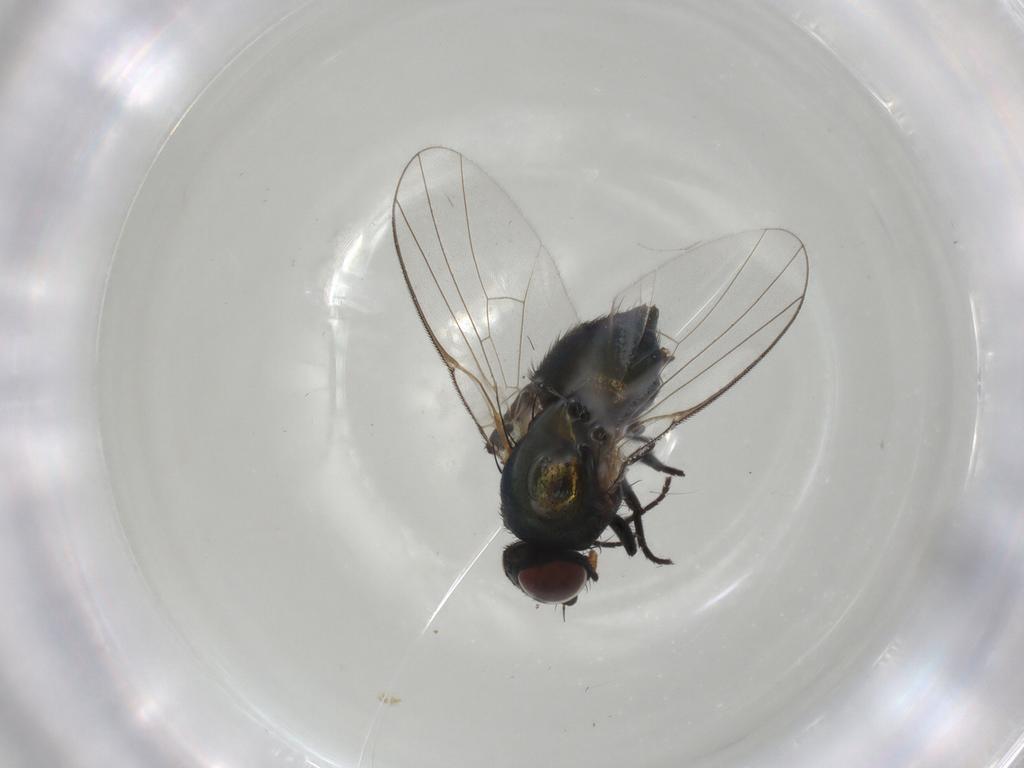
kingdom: Animalia
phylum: Arthropoda
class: Insecta
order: Diptera
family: Agromyzidae
